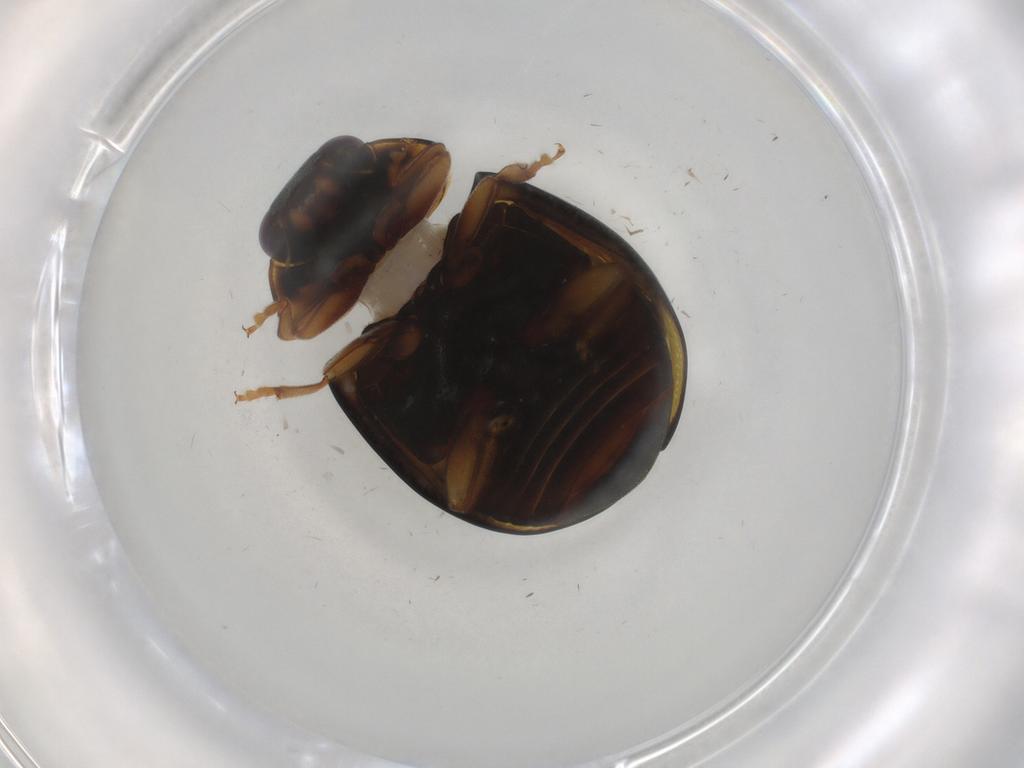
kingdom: Animalia
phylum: Arthropoda
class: Insecta
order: Coleoptera
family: Coccinellidae
